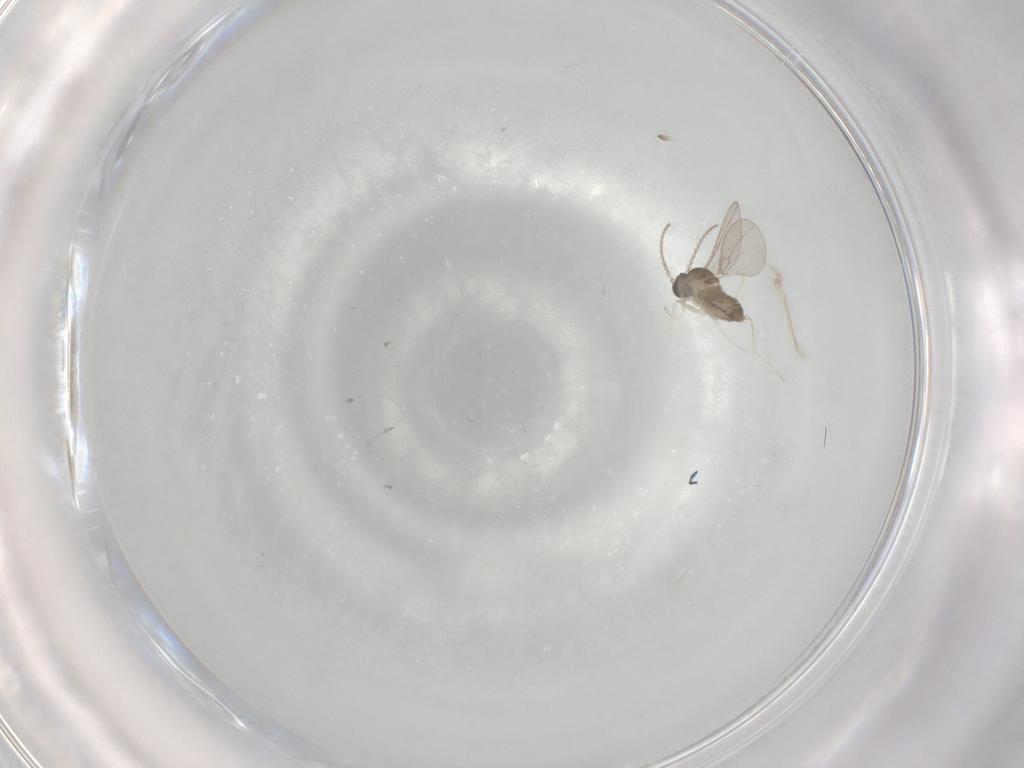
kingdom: Animalia
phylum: Arthropoda
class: Insecta
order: Diptera
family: Cecidomyiidae
